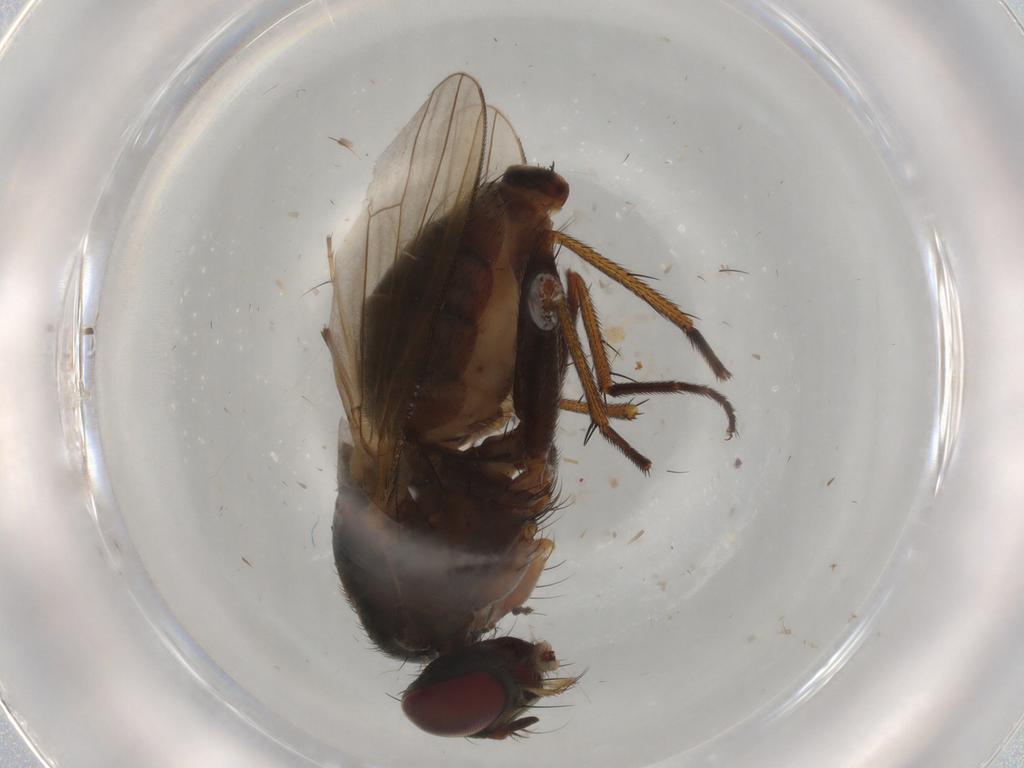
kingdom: Animalia
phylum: Arthropoda
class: Insecta
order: Diptera
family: Muscidae
